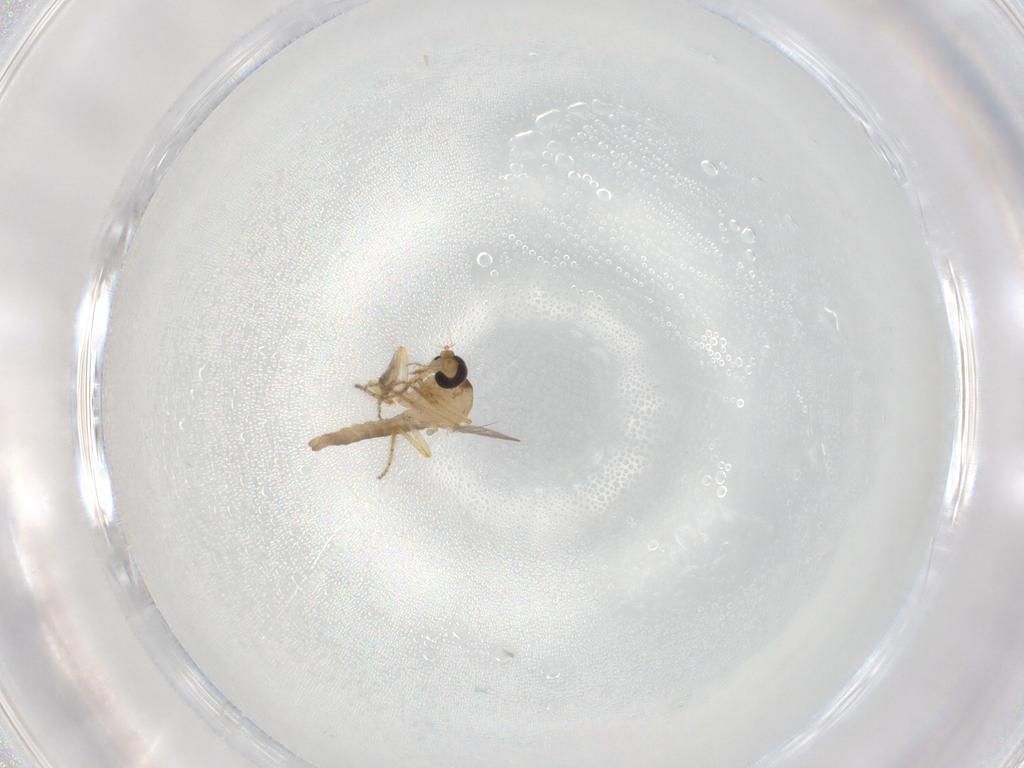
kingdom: Animalia
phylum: Arthropoda
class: Insecta
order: Diptera
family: Ceratopogonidae
